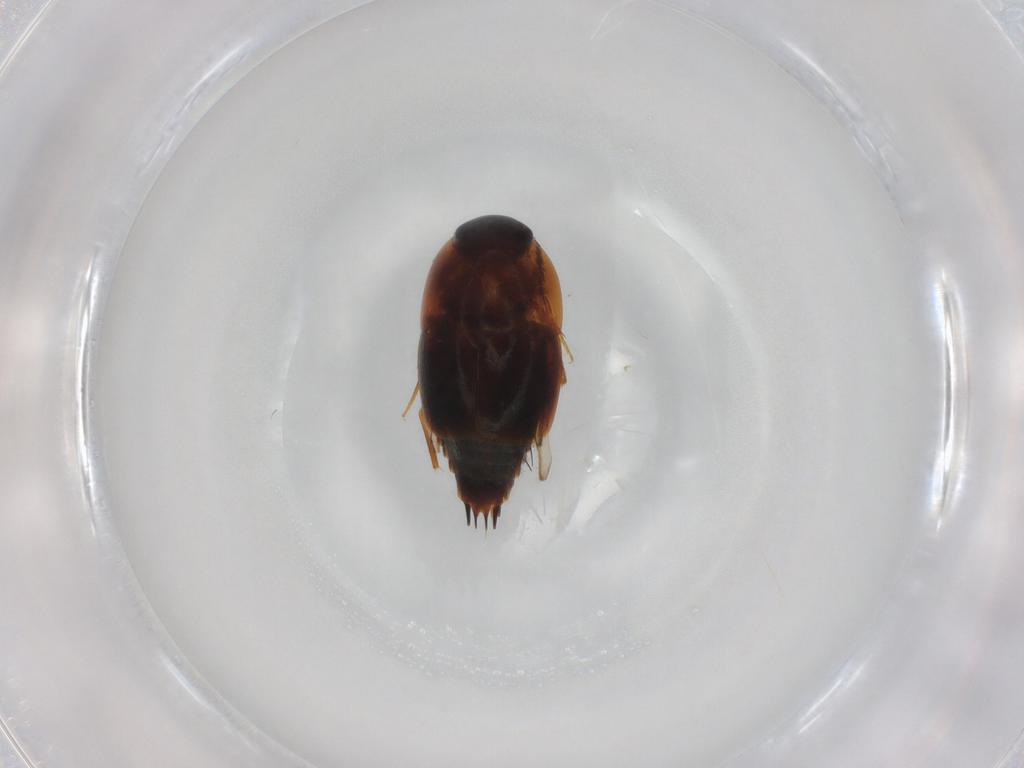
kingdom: Animalia
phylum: Arthropoda
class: Insecta
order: Coleoptera
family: Staphylinidae
